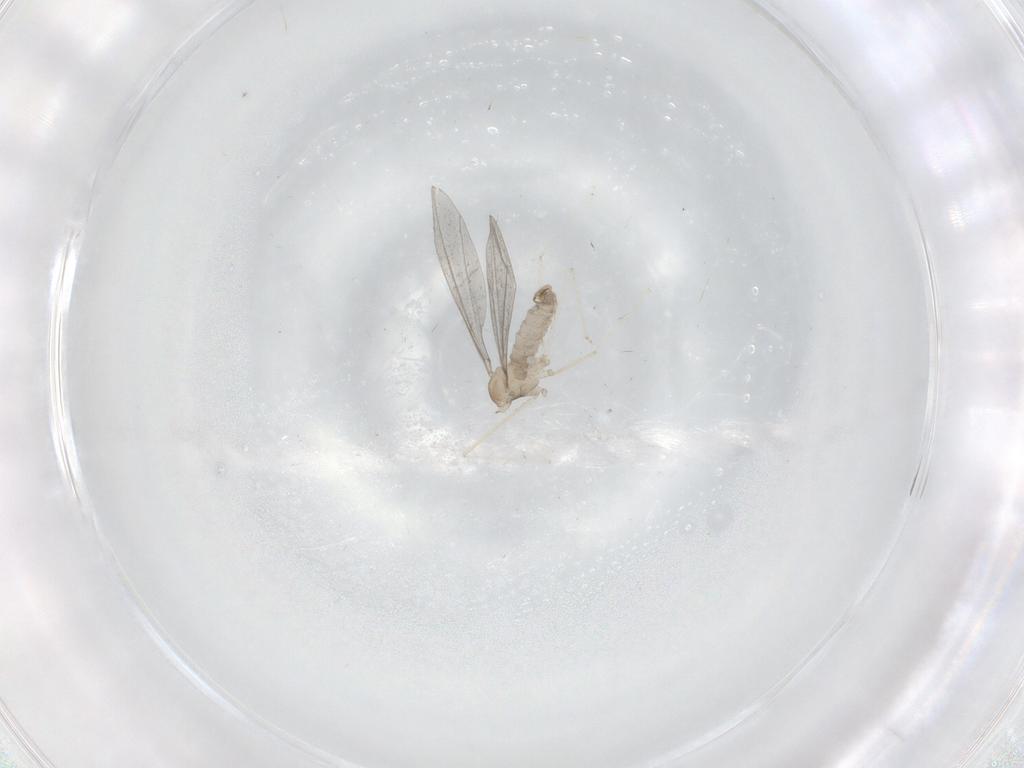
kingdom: Animalia
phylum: Arthropoda
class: Insecta
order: Diptera
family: Cecidomyiidae
